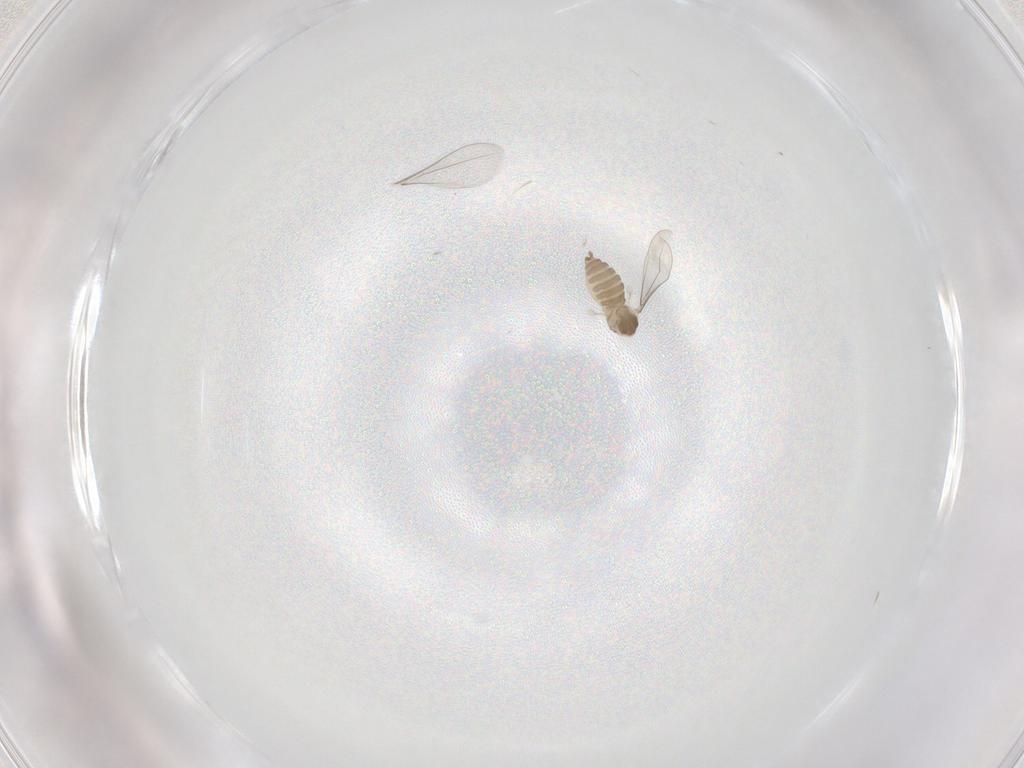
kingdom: Animalia
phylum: Arthropoda
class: Insecta
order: Diptera
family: Cecidomyiidae
